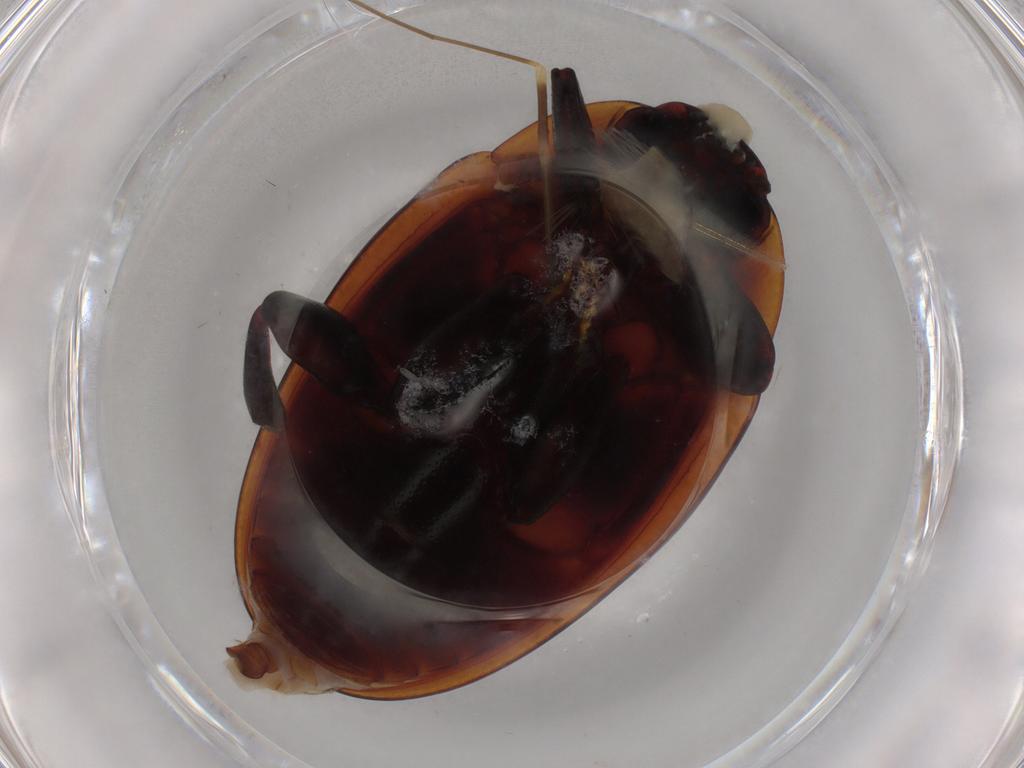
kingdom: Animalia
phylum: Arthropoda
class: Insecta
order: Coleoptera
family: Zopheridae
